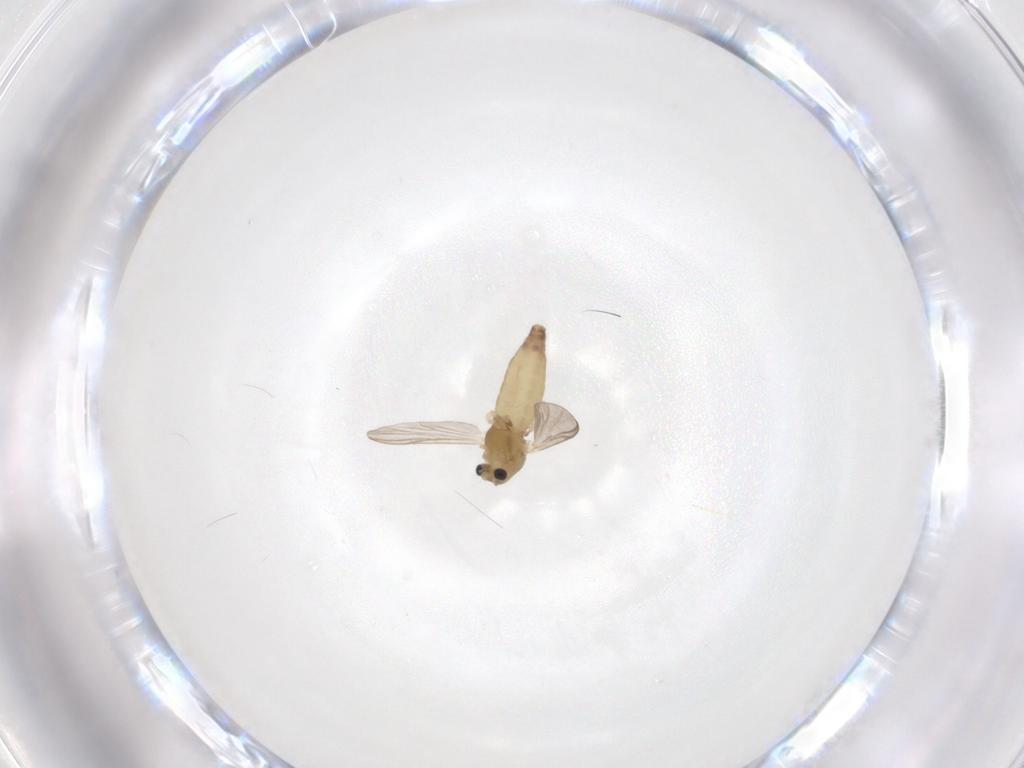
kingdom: Animalia
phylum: Arthropoda
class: Insecta
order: Diptera
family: Chironomidae
